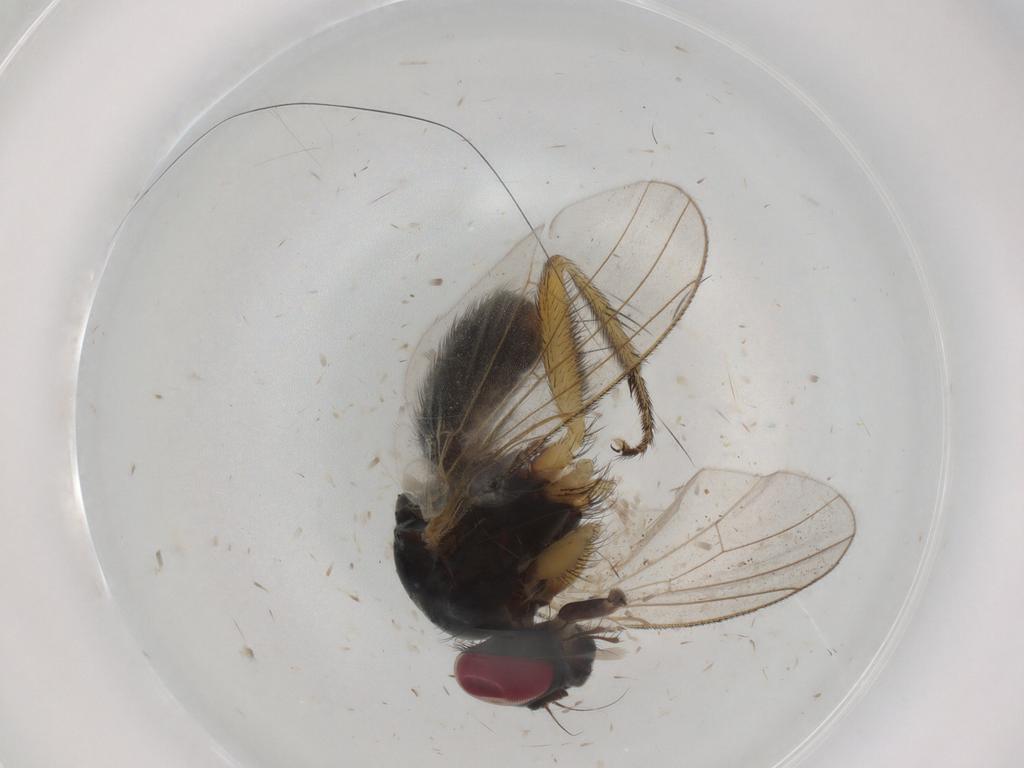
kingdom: Animalia
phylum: Arthropoda
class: Insecta
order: Diptera
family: Muscidae
